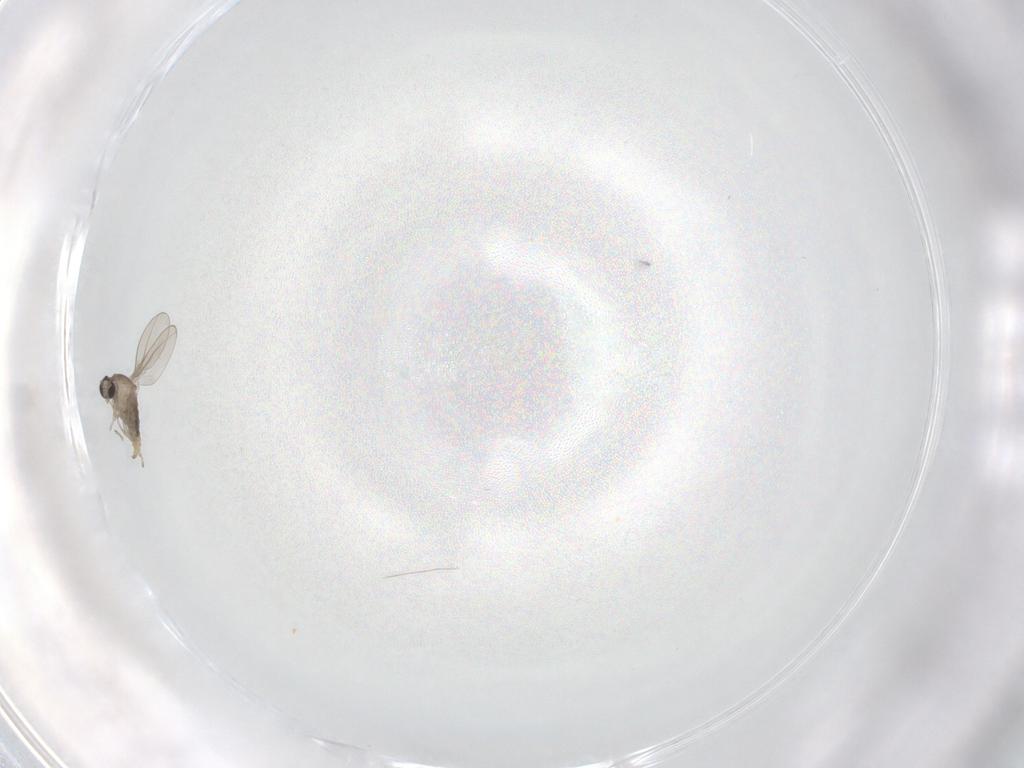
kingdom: Animalia
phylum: Arthropoda
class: Insecta
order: Diptera
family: Cecidomyiidae
